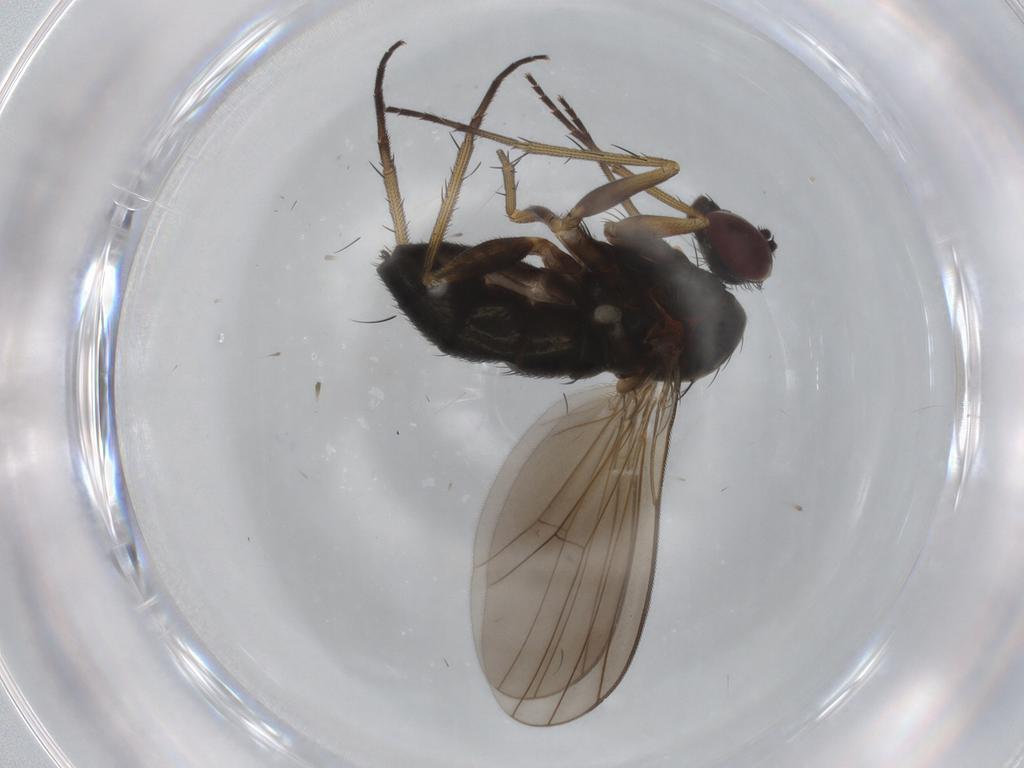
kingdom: Animalia
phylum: Arthropoda
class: Insecta
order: Diptera
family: Dolichopodidae
